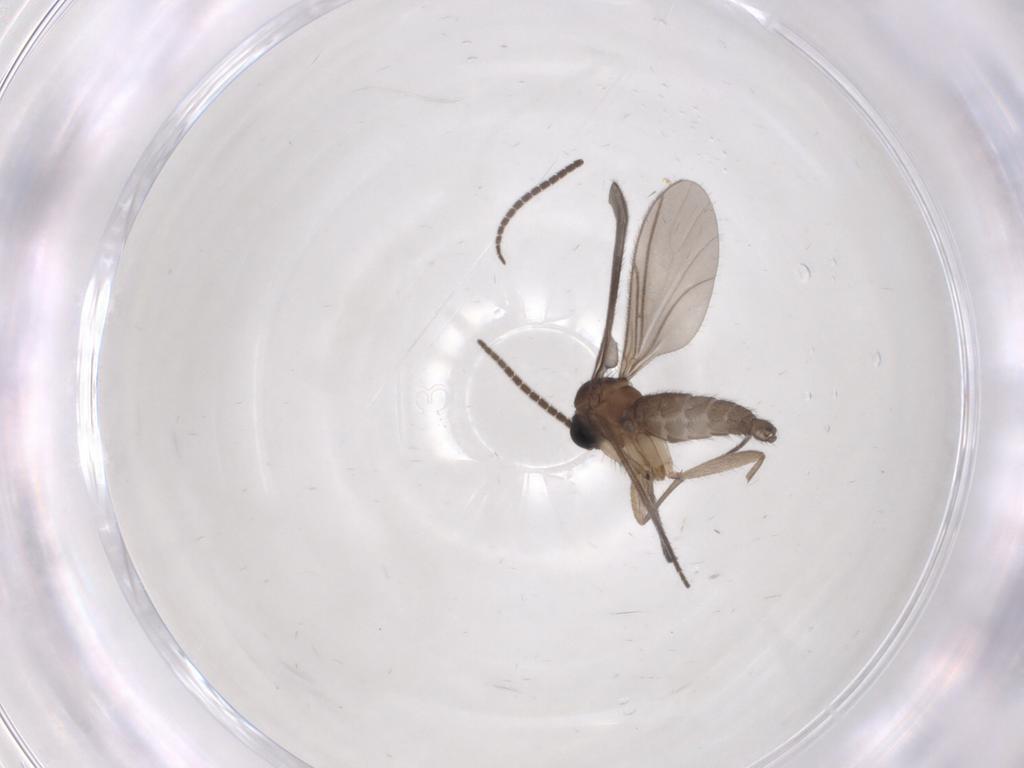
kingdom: Animalia
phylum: Arthropoda
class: Insecta
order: Diptera
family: Sciaridae
